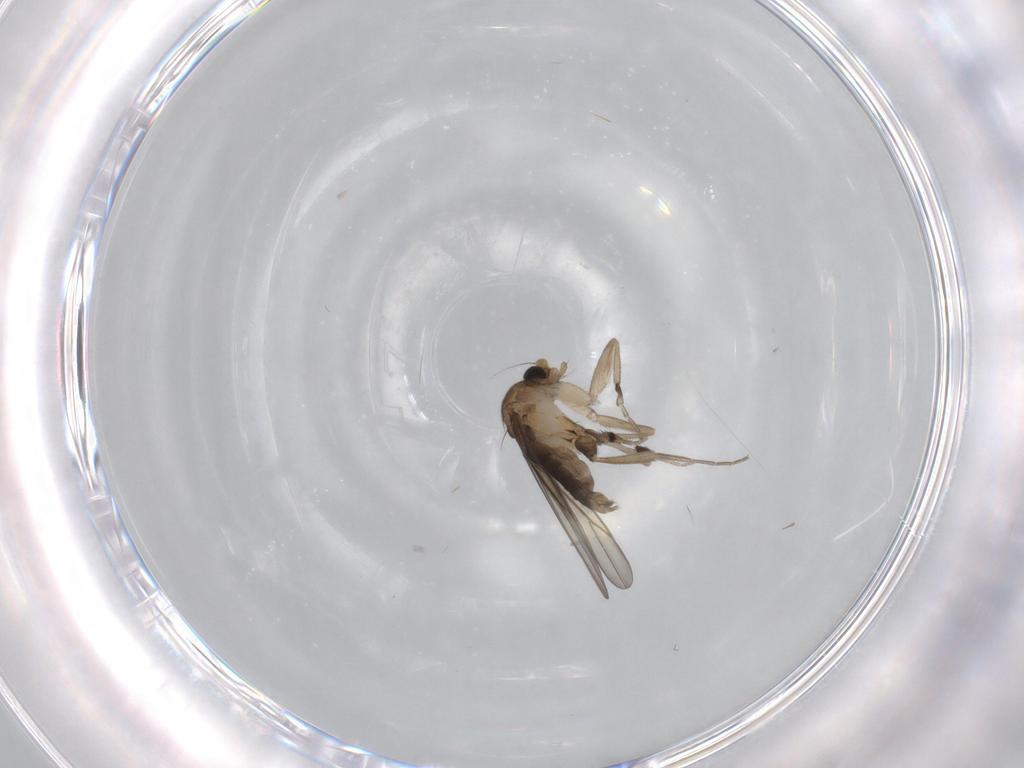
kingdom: Animalia
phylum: Arthropoda
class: Insecta
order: Diptera
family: Phoridae
